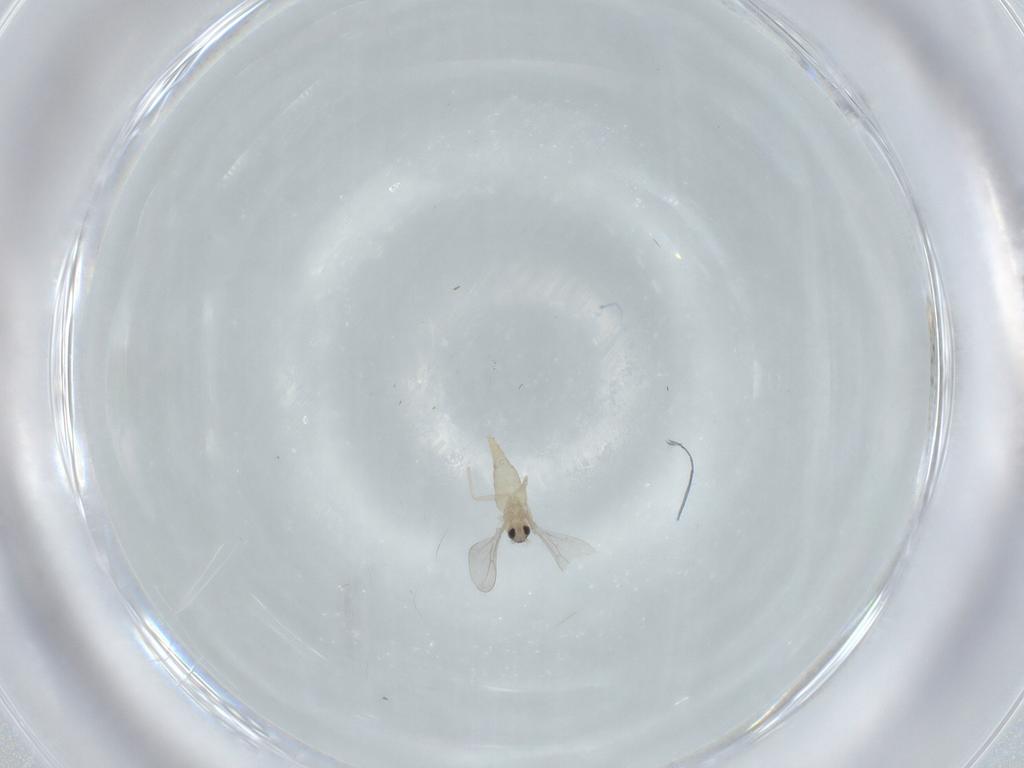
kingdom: Animalia
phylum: Arthropoda
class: Insecta
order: Diptera
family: Cecidomyiidae
